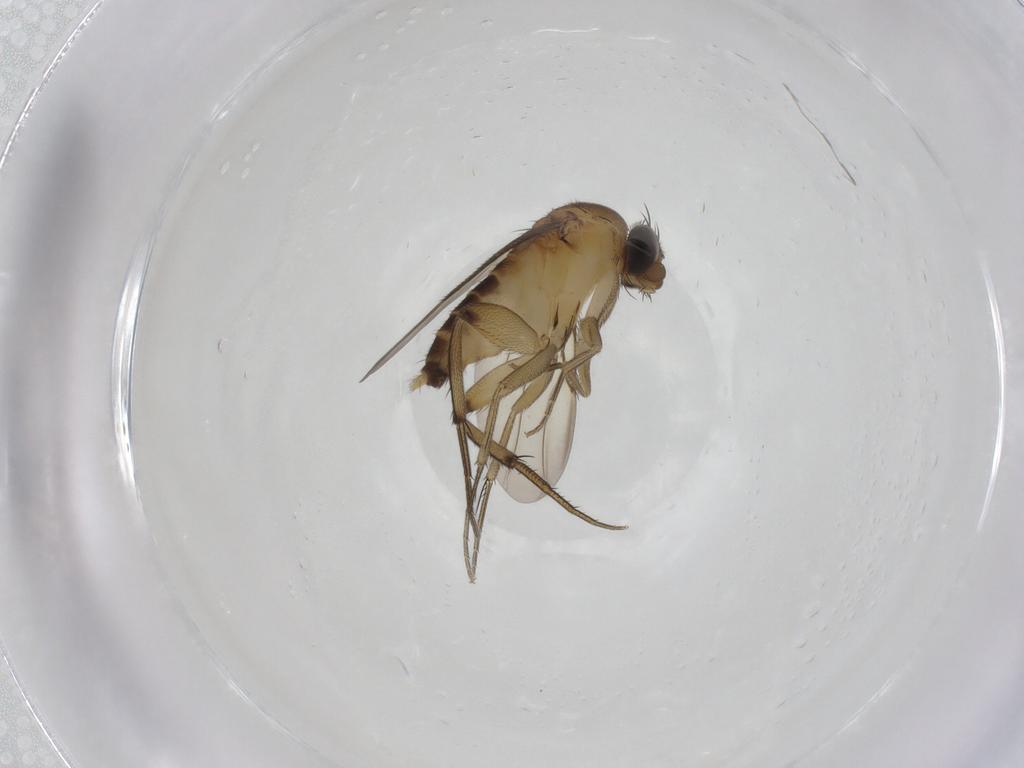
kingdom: Animalia
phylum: Arthropoda
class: Insecta
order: Diptera
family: Phoridae
